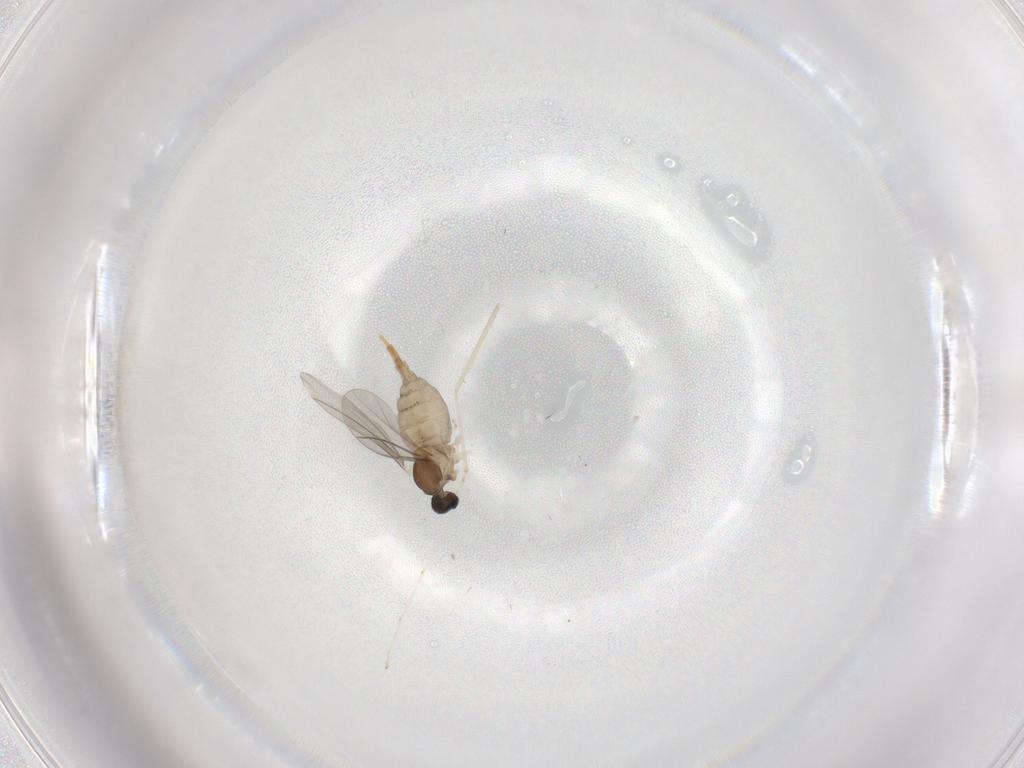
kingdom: Animalia
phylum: Arthropoda
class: Insecta
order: Diptera
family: Cecidomyiidae
